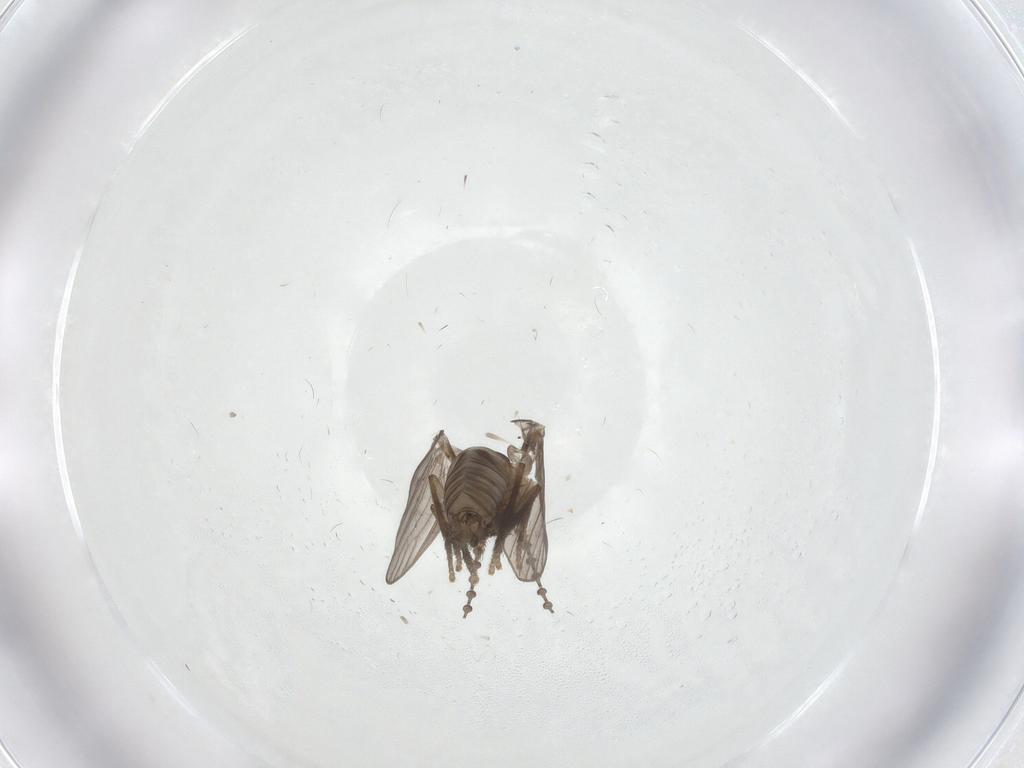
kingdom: Animalia
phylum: Arthropoda
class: Insecta
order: Diptera
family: Psychodidae
